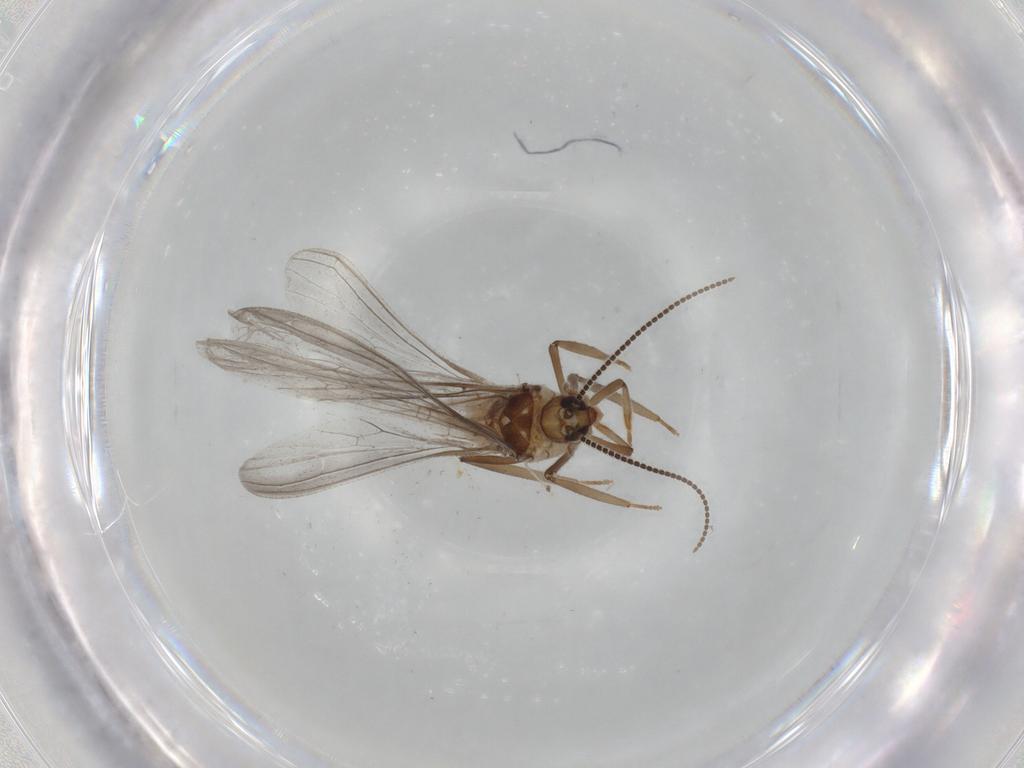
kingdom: Animalia
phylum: Arthropoda
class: Insecta
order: Neuroptera
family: Coniopterygidae
